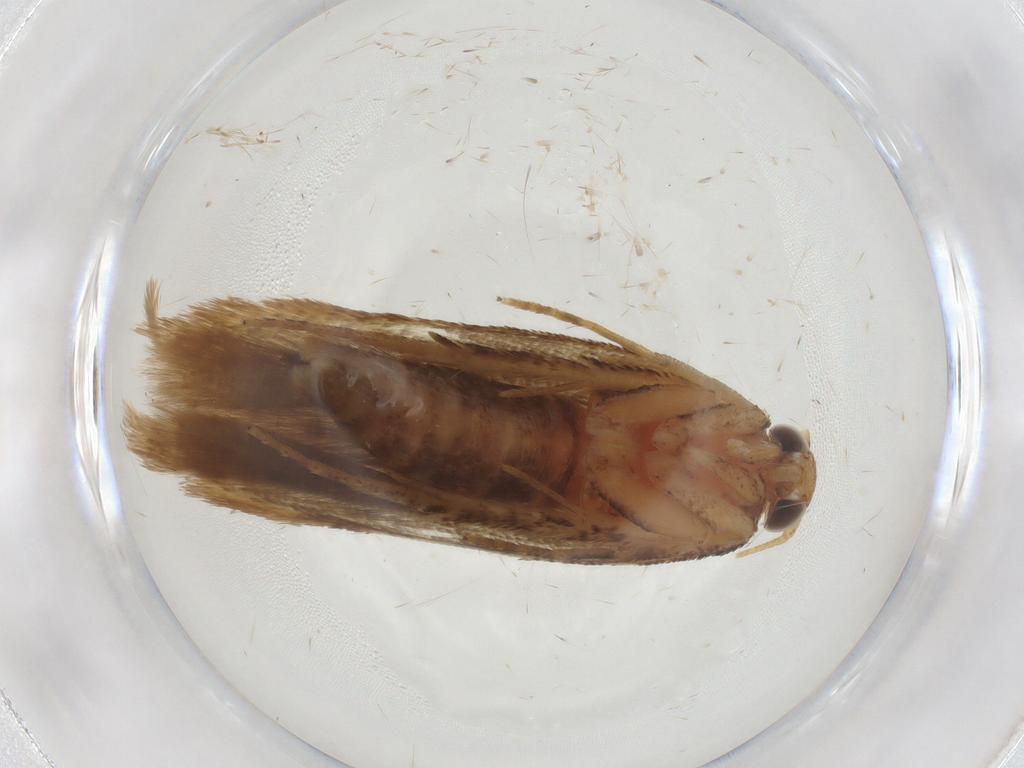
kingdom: Animalia
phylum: Arthropoda
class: Insecta
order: Lepidoptera
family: Gelechiidae
